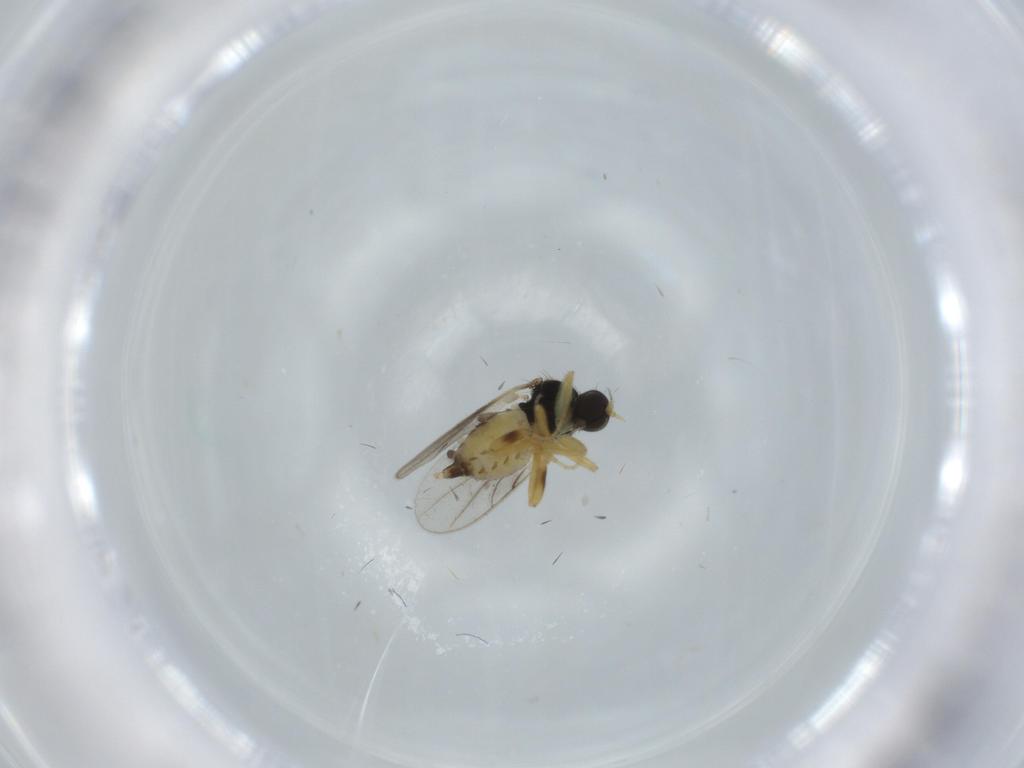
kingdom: Animalia
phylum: Arthropoda
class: Insecta
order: Diptera
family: Hybotidae
